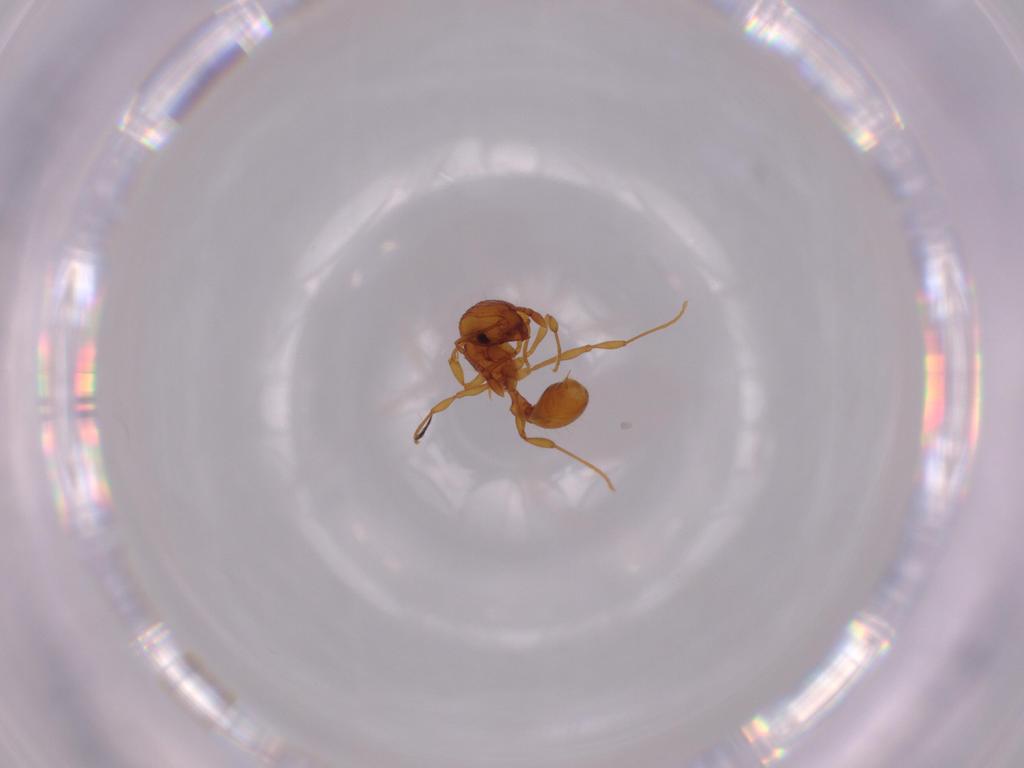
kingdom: Animalia
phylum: Arthropoda
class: Insecta
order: Hymenoptera
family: Formicidae
